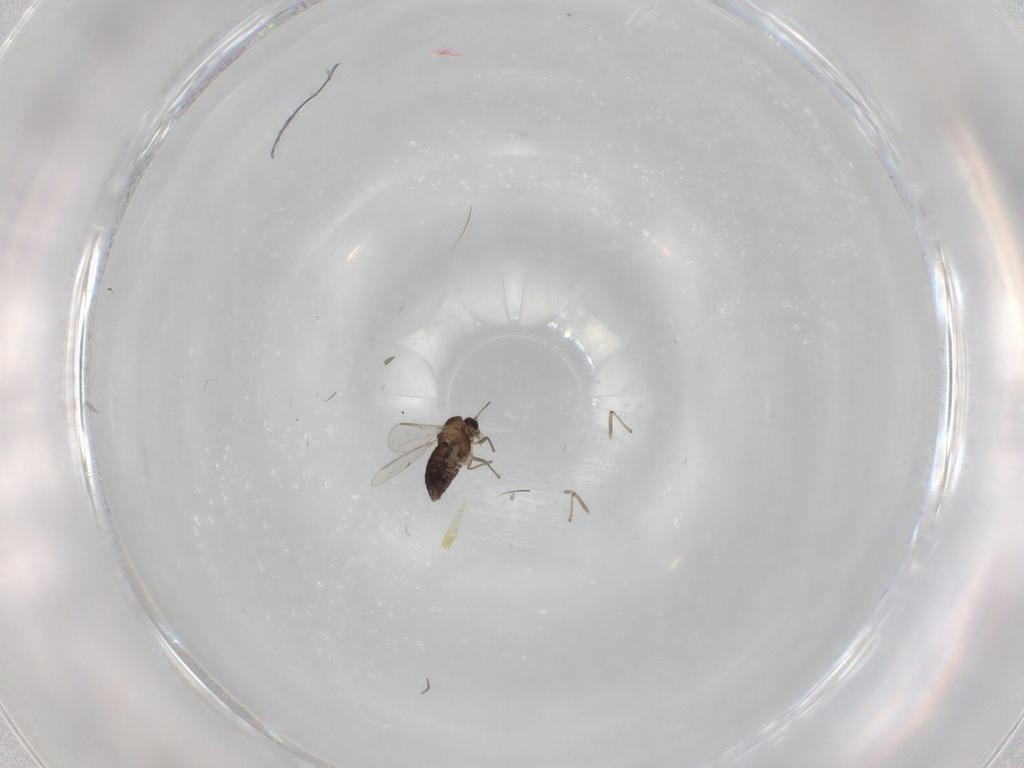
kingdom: Animalia
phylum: Arthropoda
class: Insecta
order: Diptera
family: Chironomidae
